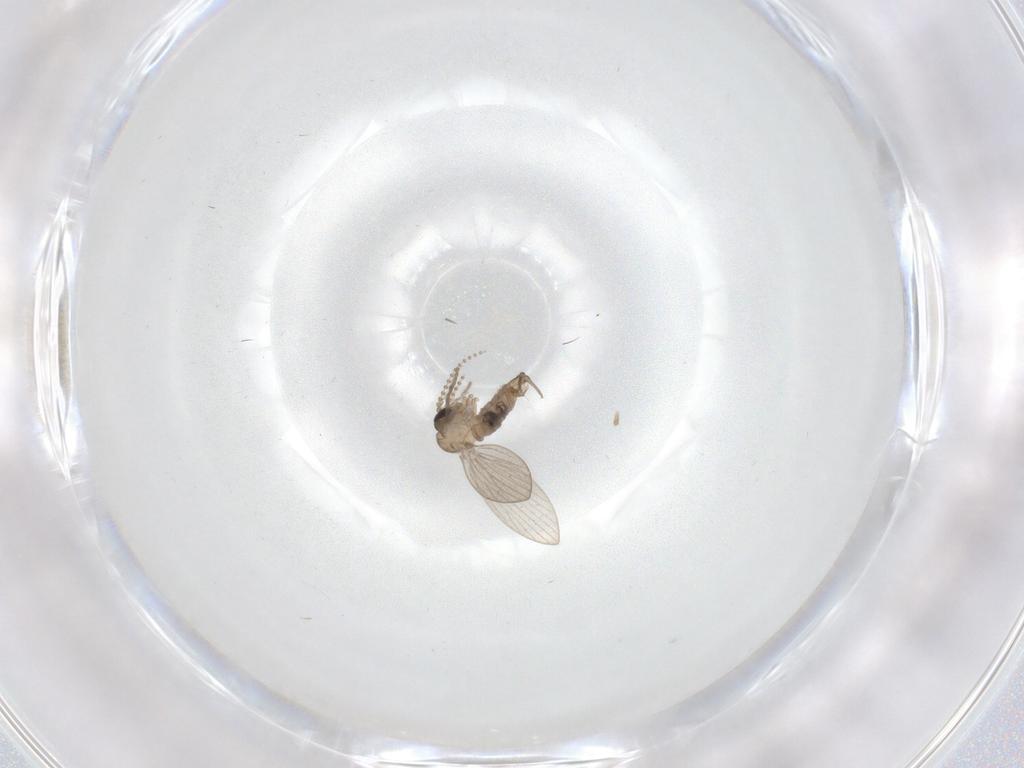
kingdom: Animalia
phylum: Arthropoda
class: Insecta
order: Diptera
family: Psychodidae
